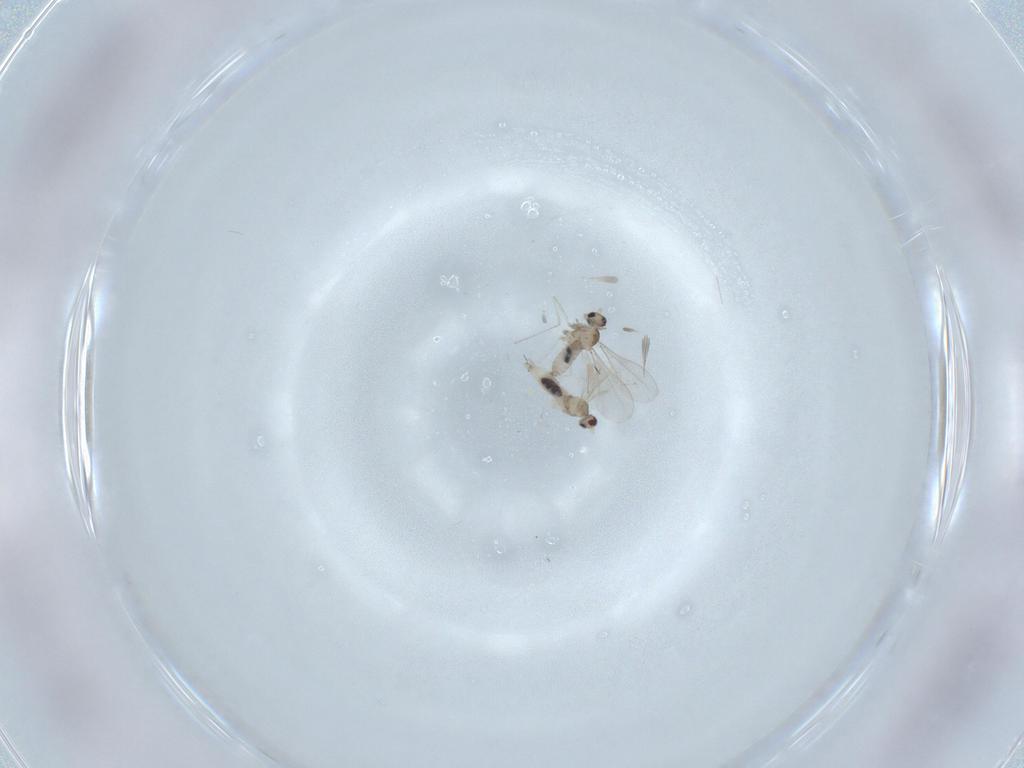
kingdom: Animalia
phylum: Arthropoda
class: Insecta
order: Diptera
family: Cecidomyiidae
